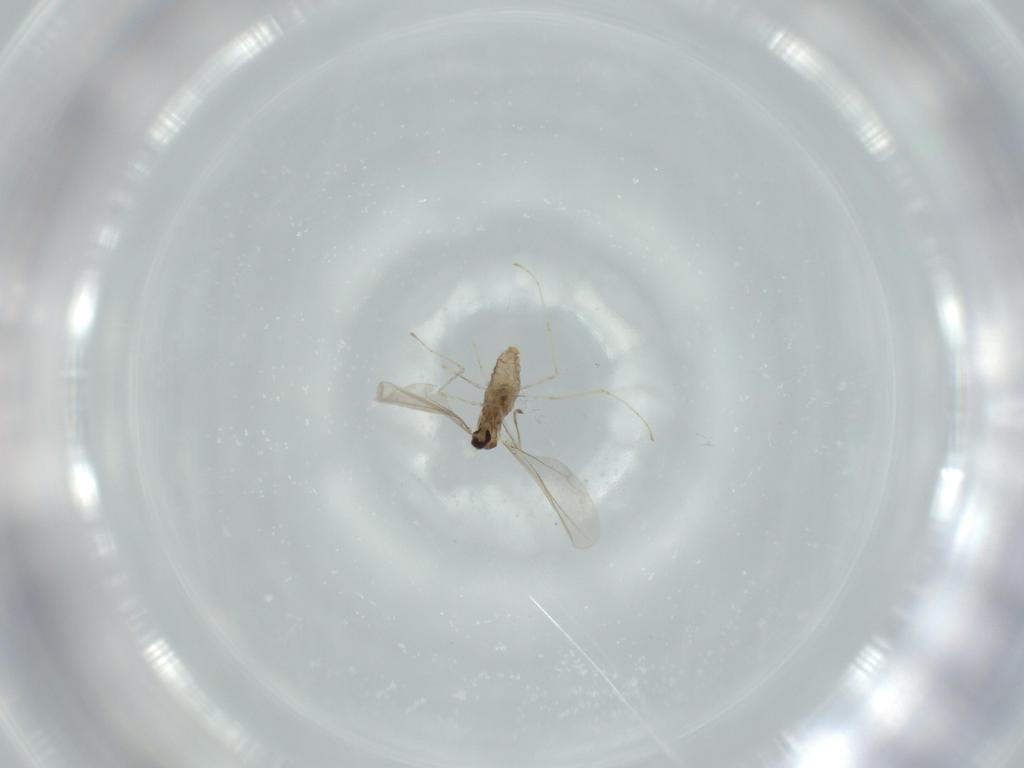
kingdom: Animalia
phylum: Arthropoda
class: Insecta
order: Diptera
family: Cecidomyiidae
